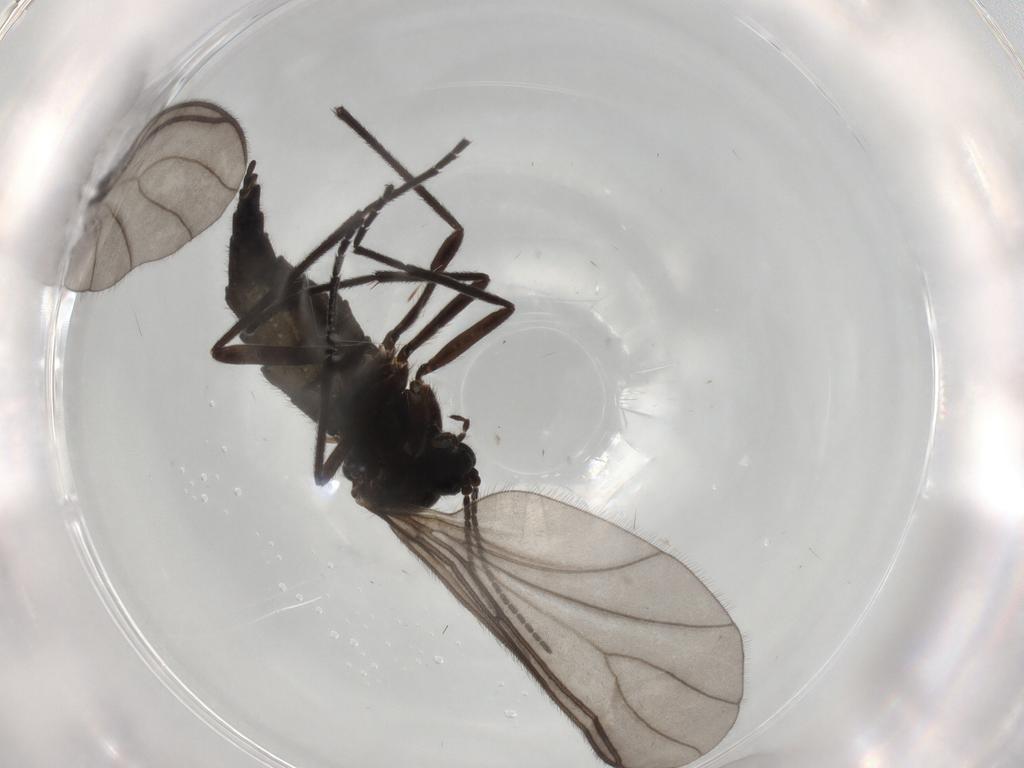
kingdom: Animalia
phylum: Arthropoda
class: Insecta
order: Diptera
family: Sciaridae
